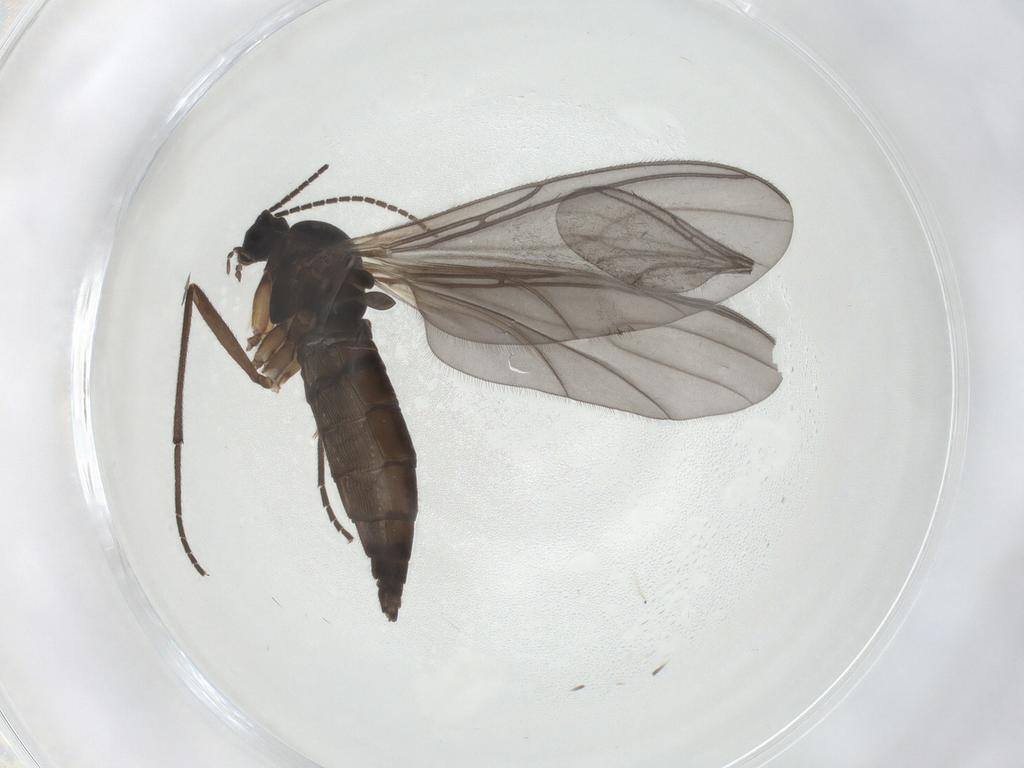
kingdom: Animalia
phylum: Arthropoda
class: Insecta
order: Diptera
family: Sciaridae
